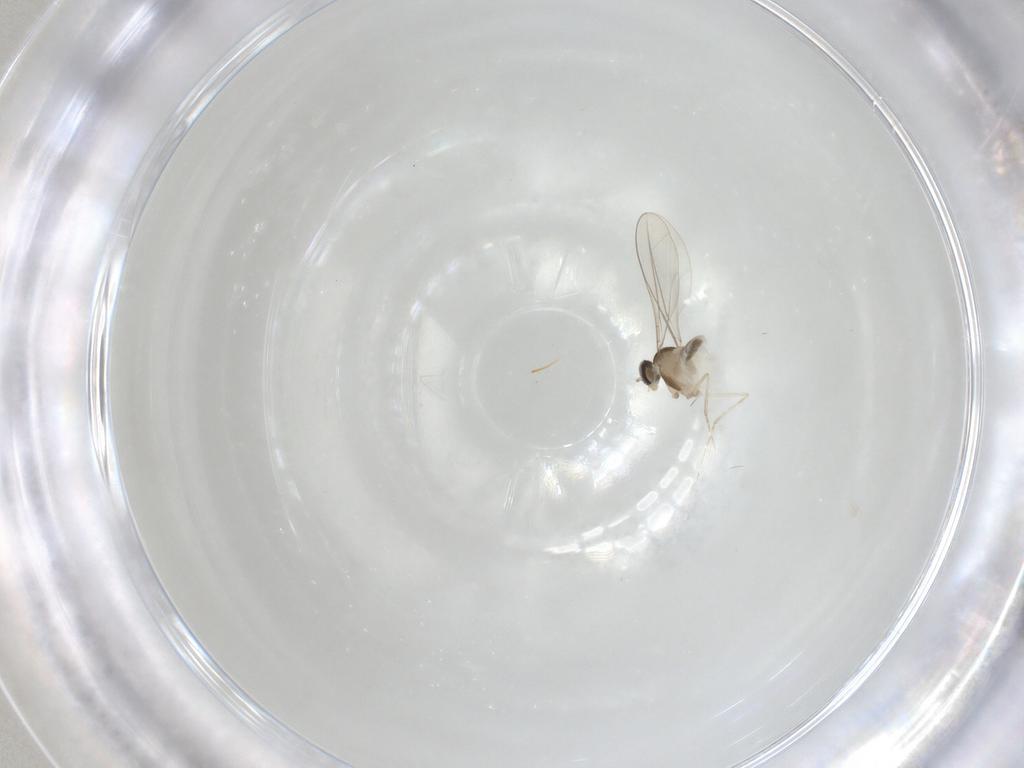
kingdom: Animalia
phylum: Arthropoda
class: Insecta
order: Diptera
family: Cecidomyiidae
